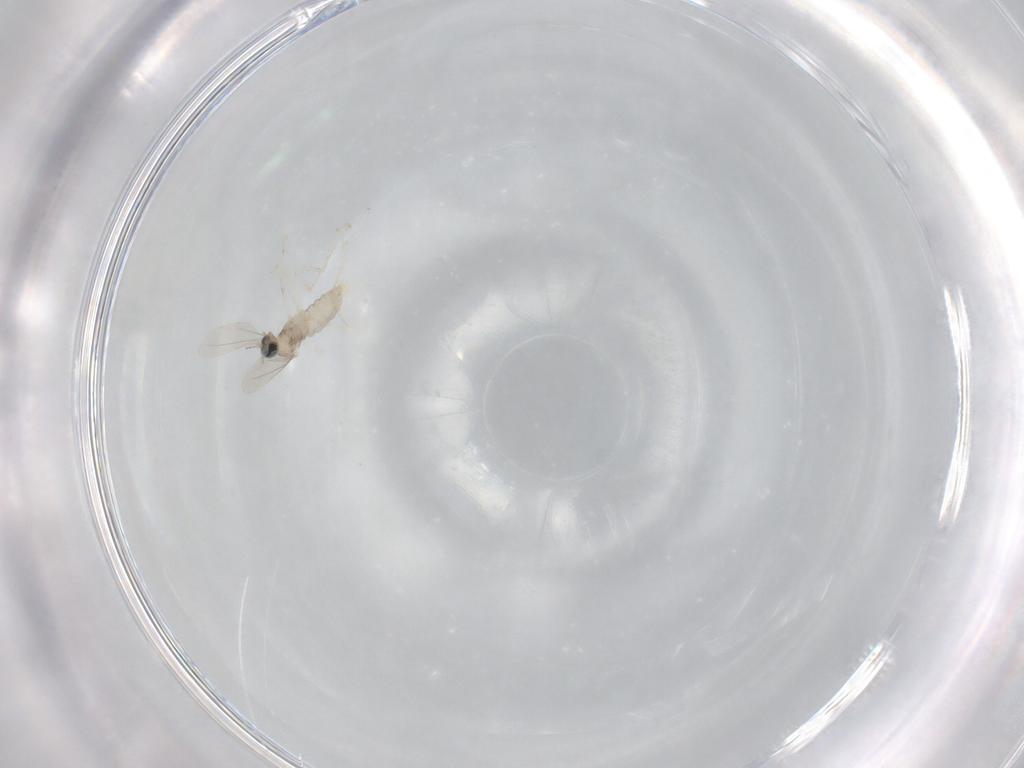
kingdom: Animalia
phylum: Arthropoda
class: Insecta
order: Diptera
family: Cecidomyiidae
